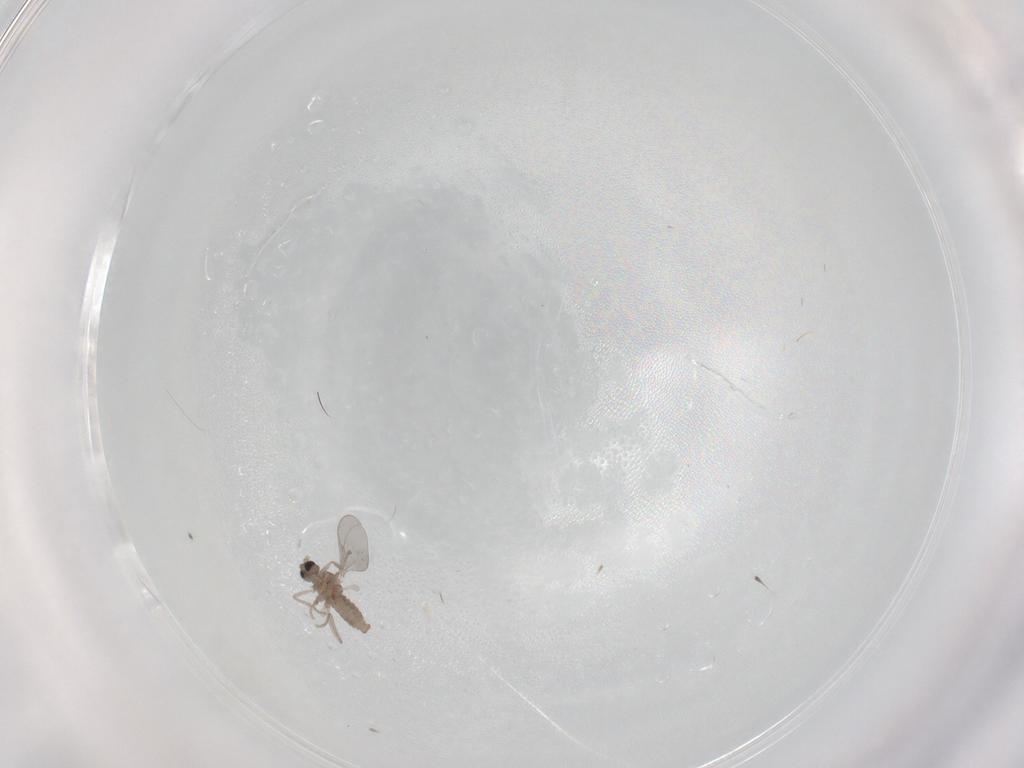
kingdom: Animalia
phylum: Arthropoda
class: Insecta
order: Diptera
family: Cecidomyiidae
